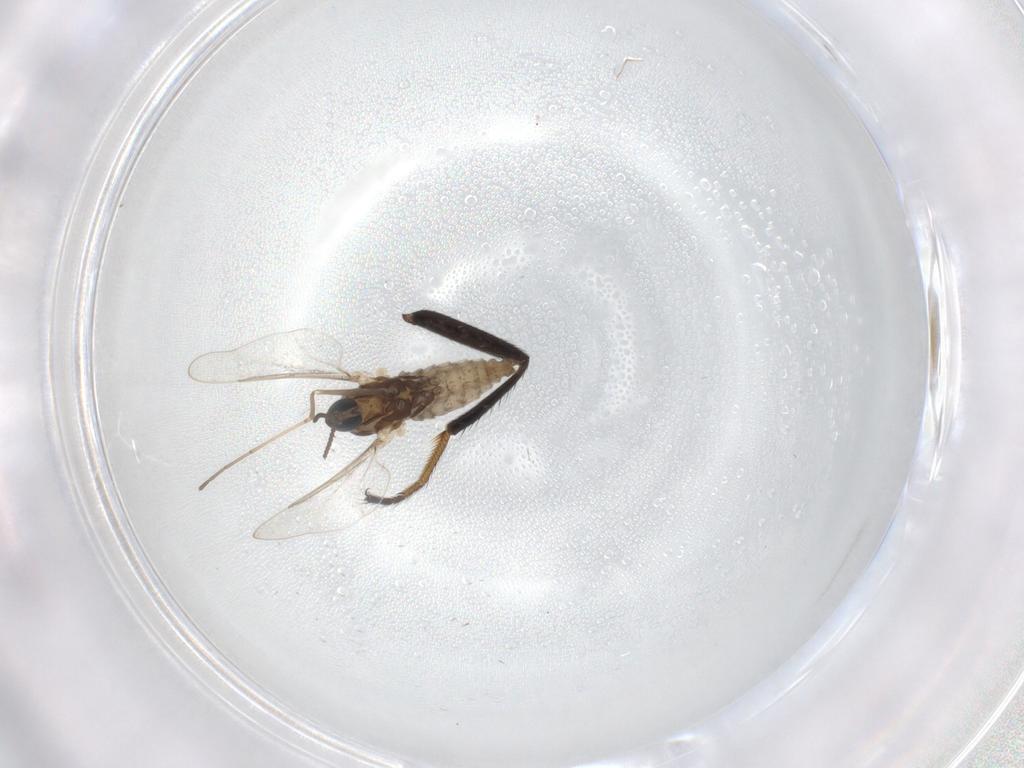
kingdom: Animalia
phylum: Arthropoda
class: Insecta
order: Diptera
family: Cecidomyiidae
